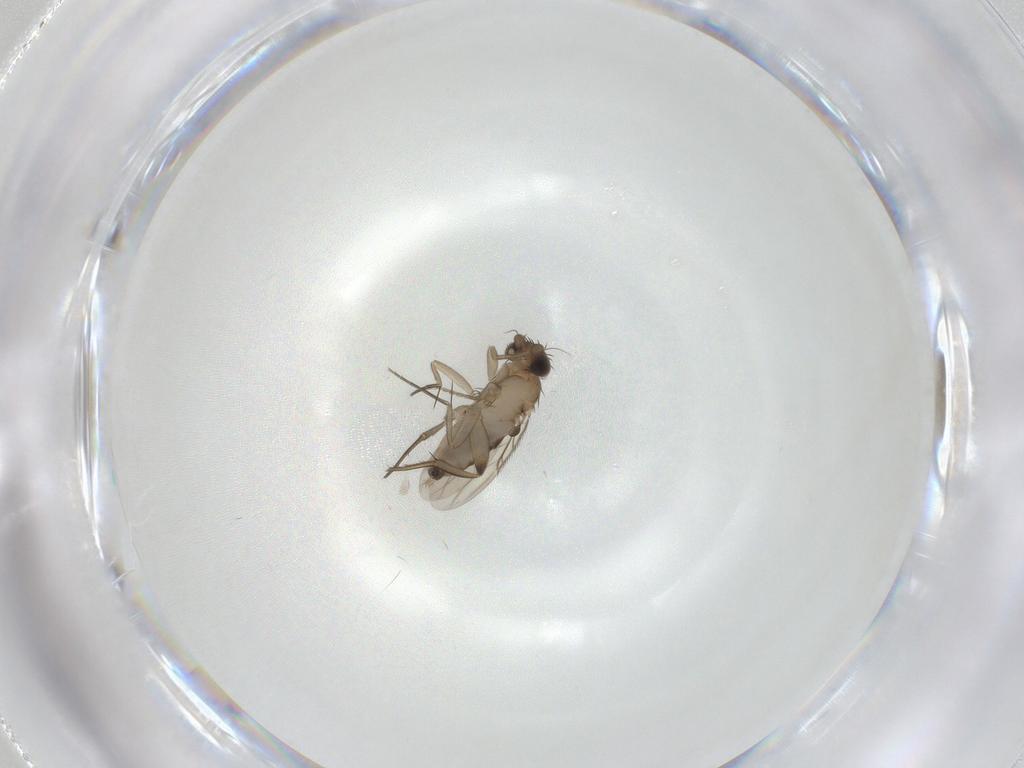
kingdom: Animalia
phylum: Arthropoda
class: Insecta
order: Diptera
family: Phoridae
